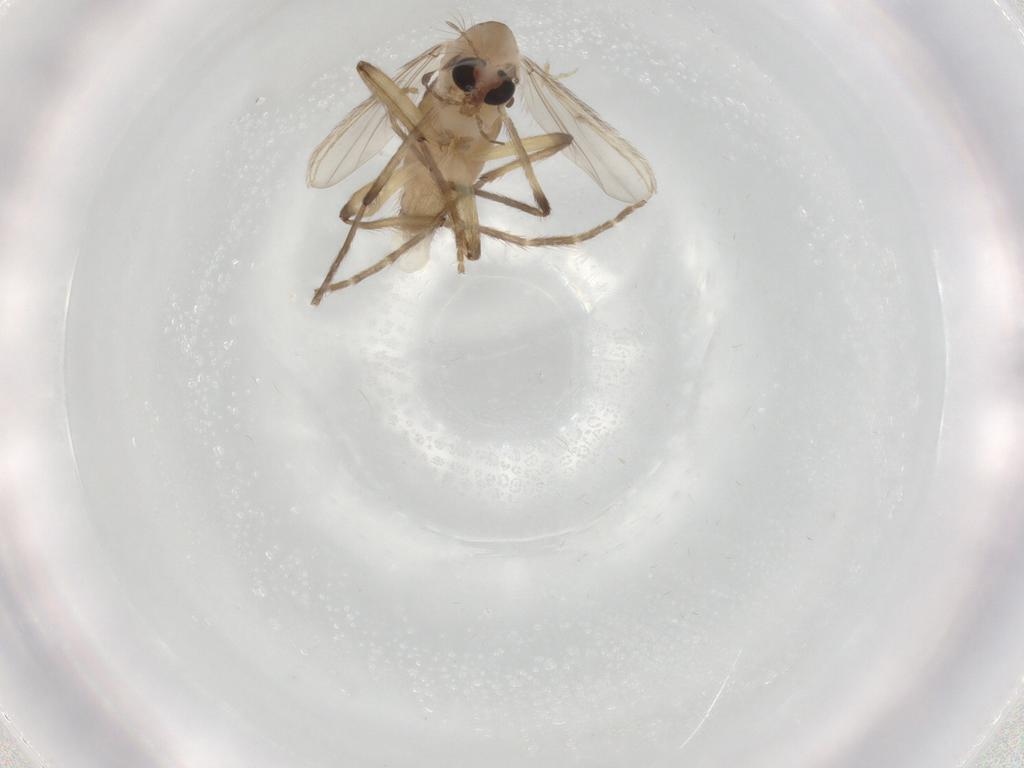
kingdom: Animalia
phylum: Arthropoda
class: Insecta
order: Diptera
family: Chironomidae
